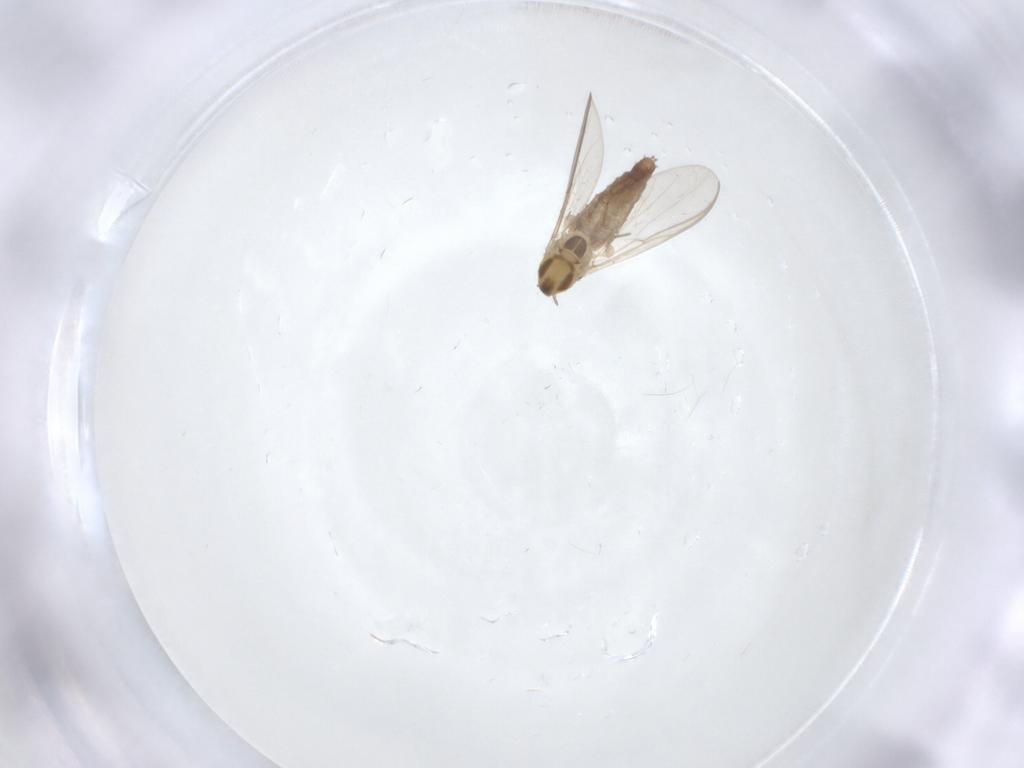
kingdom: Animalia
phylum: Arthropoda
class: Insecta
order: Diptera
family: Chironomidae
